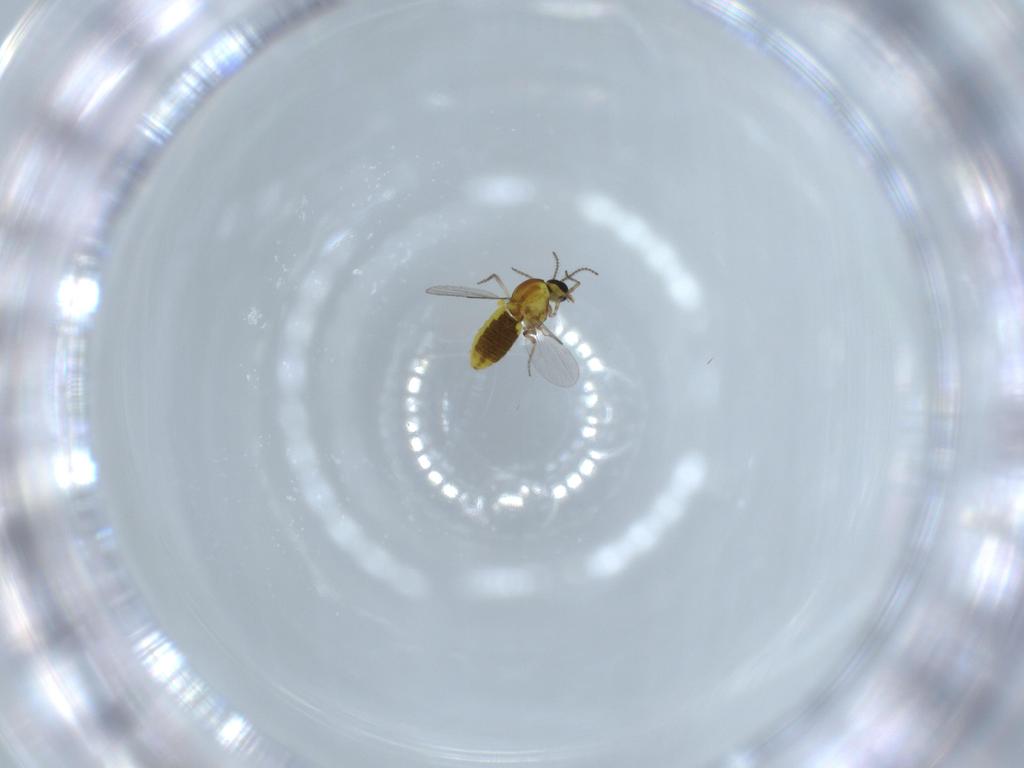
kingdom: Animalia
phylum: Arthropoda
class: Insecta
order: Diptera
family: Ceratopogonidae
